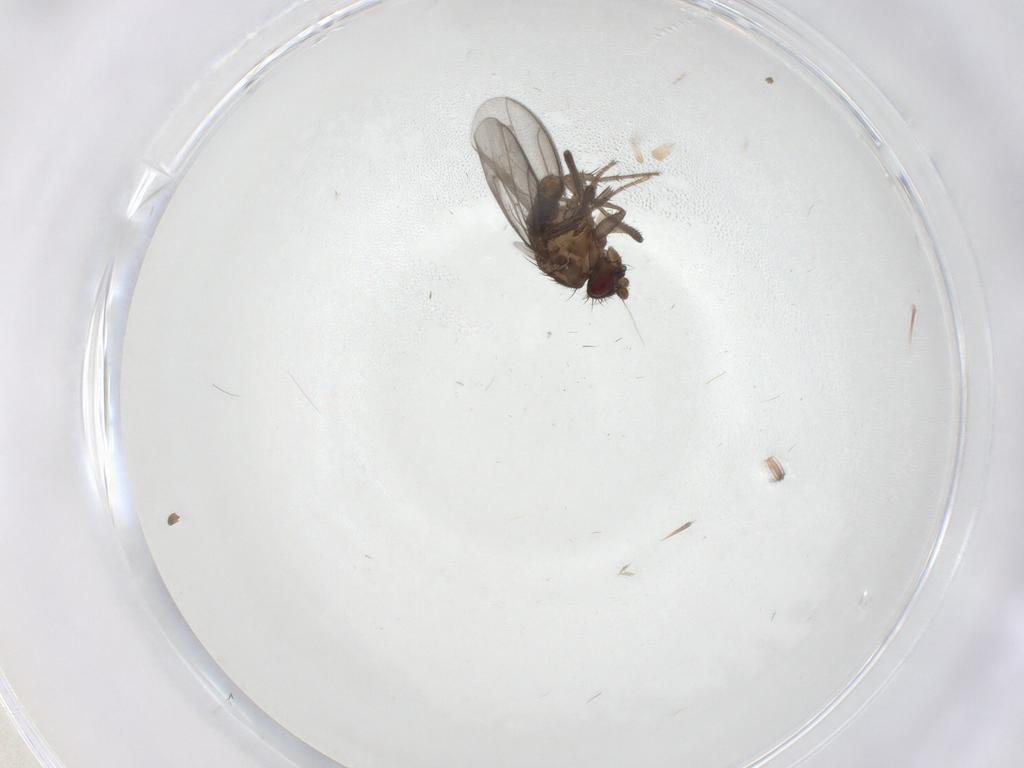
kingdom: Animalia
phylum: Arthropoda
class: Insecta
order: Diptera
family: Sphaeroceridae
